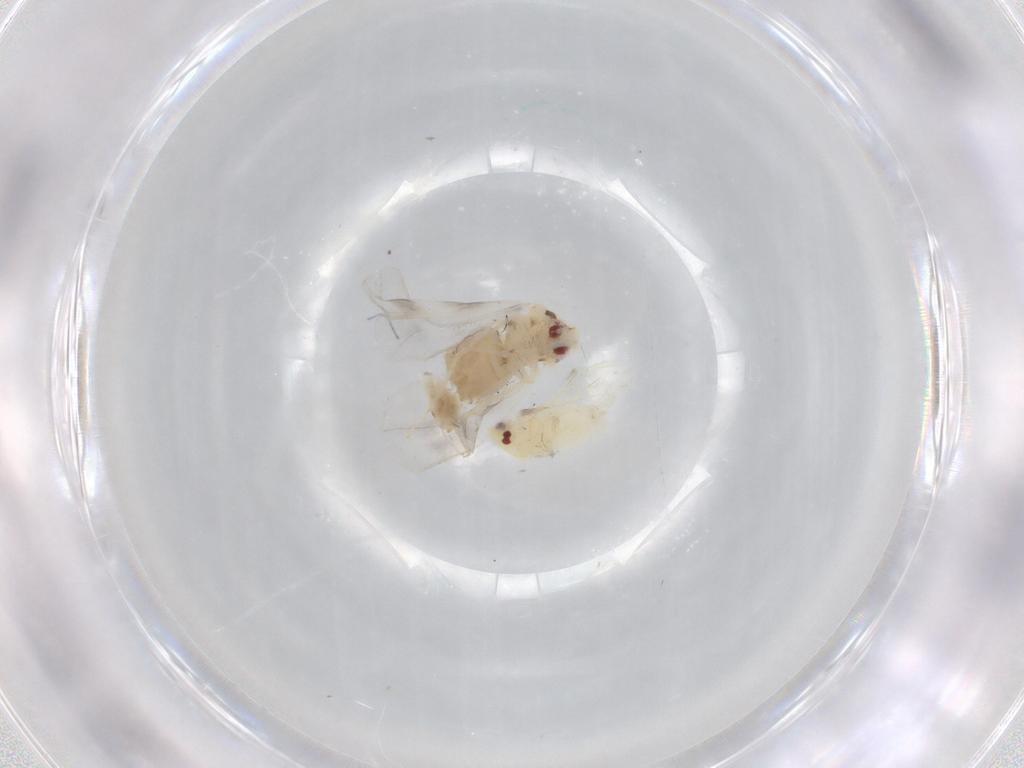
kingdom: Animalia
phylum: Arthropoda
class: Insecta
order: Hemiptera
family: Aleyrodidae
